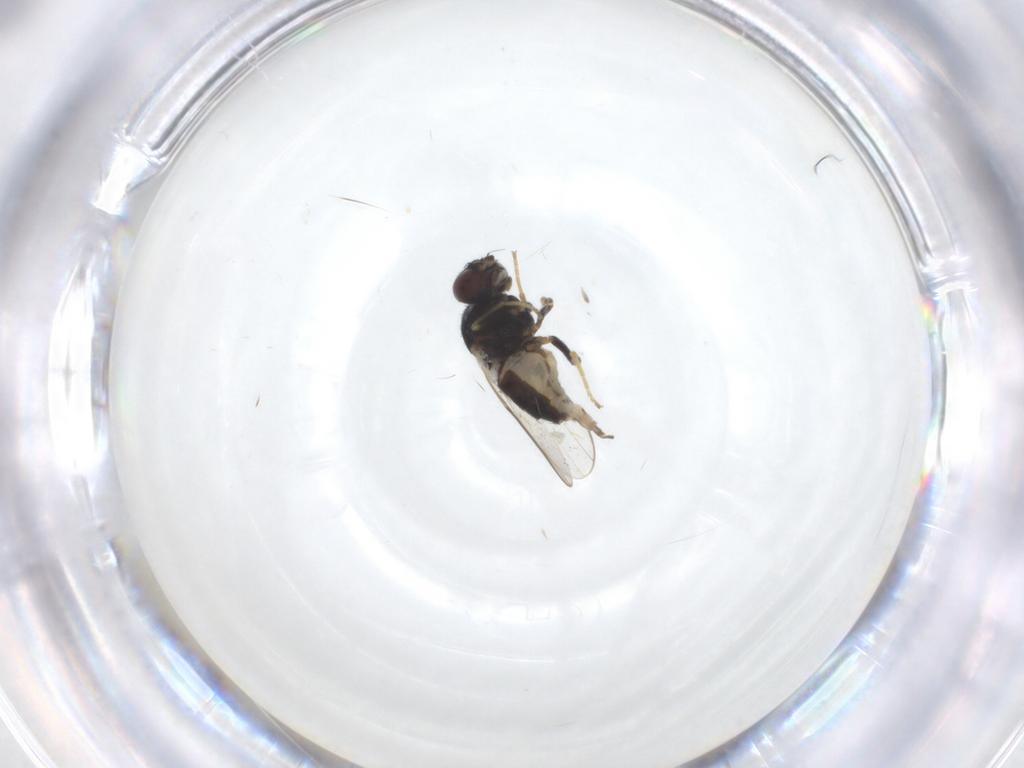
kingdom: Animalia
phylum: Arthropoda
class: Insecta
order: Diptera
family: Chloropidae
